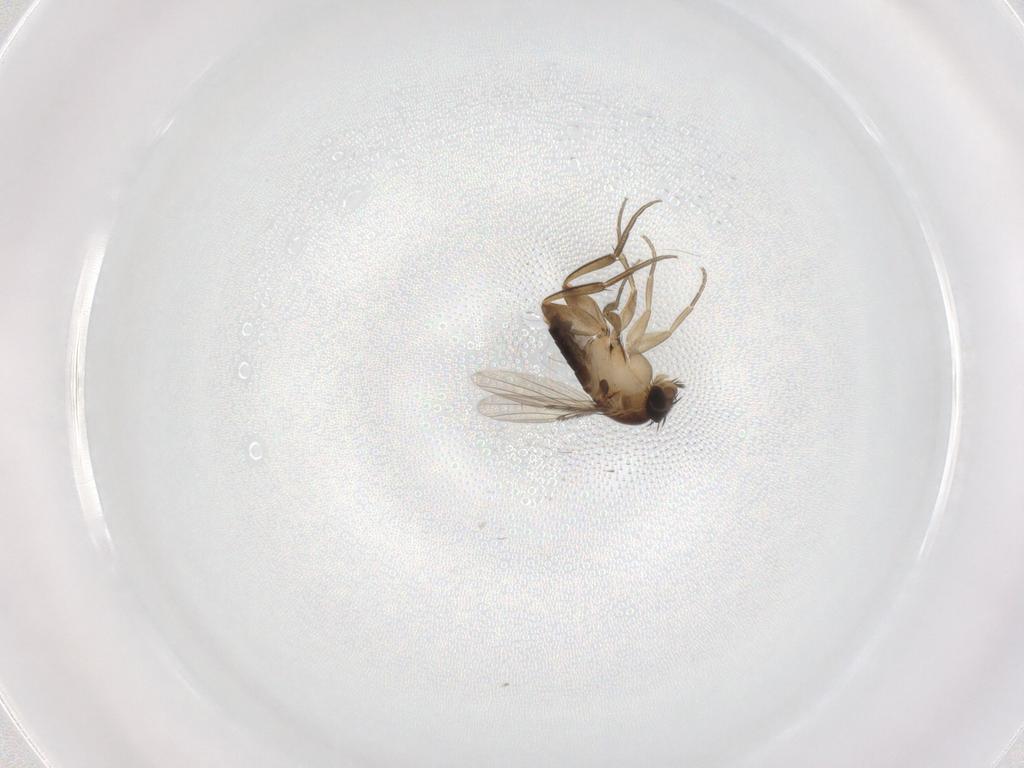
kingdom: Animalia
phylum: Arthropoda
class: Insecta
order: Diptera
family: Phoridae
